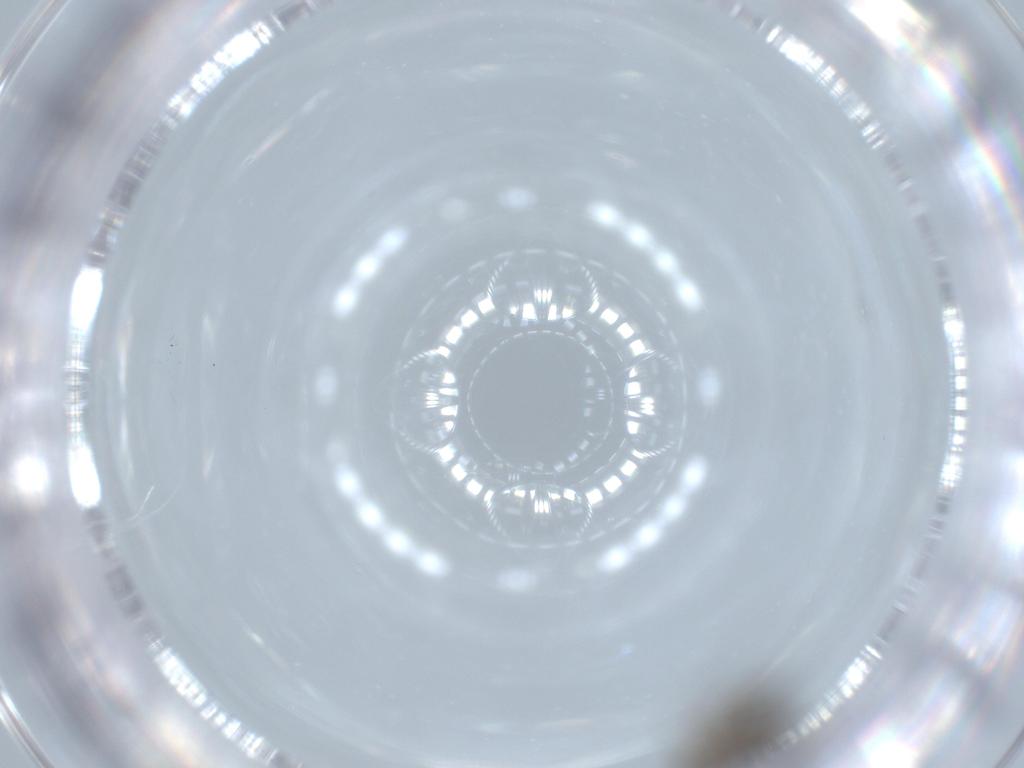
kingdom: Animalia
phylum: Arthropoda
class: Insecta
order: Diptera
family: Sciaridae
